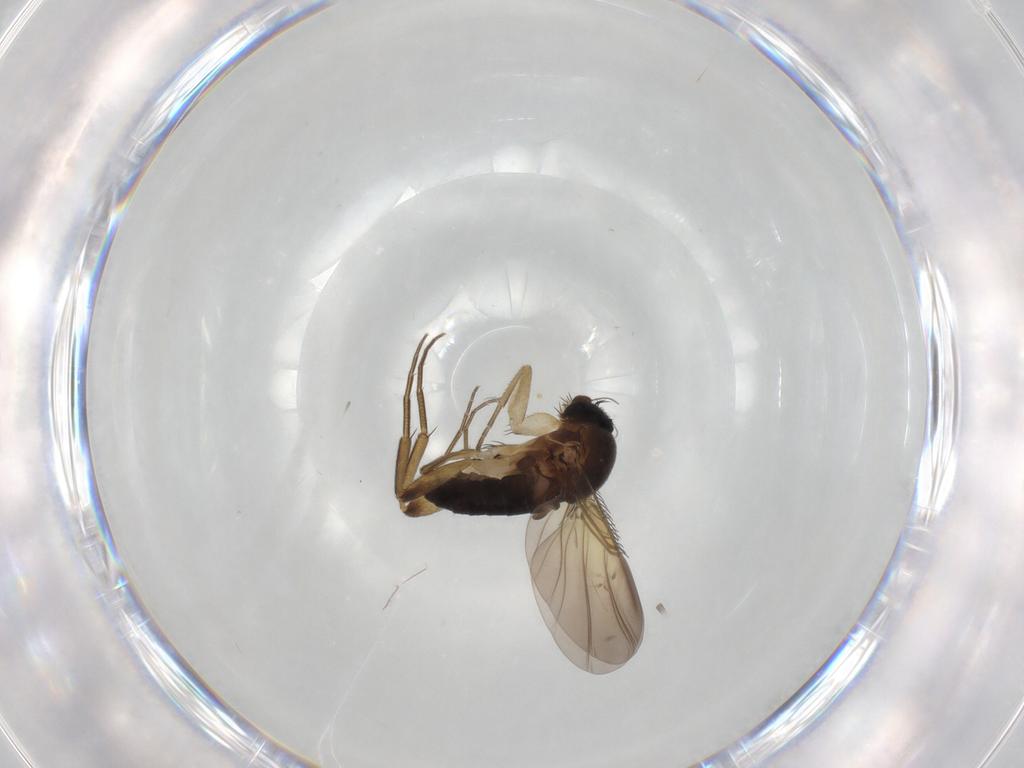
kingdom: Animalia
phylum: Arthropoda
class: Insecta
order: Diptera
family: Phoridae
